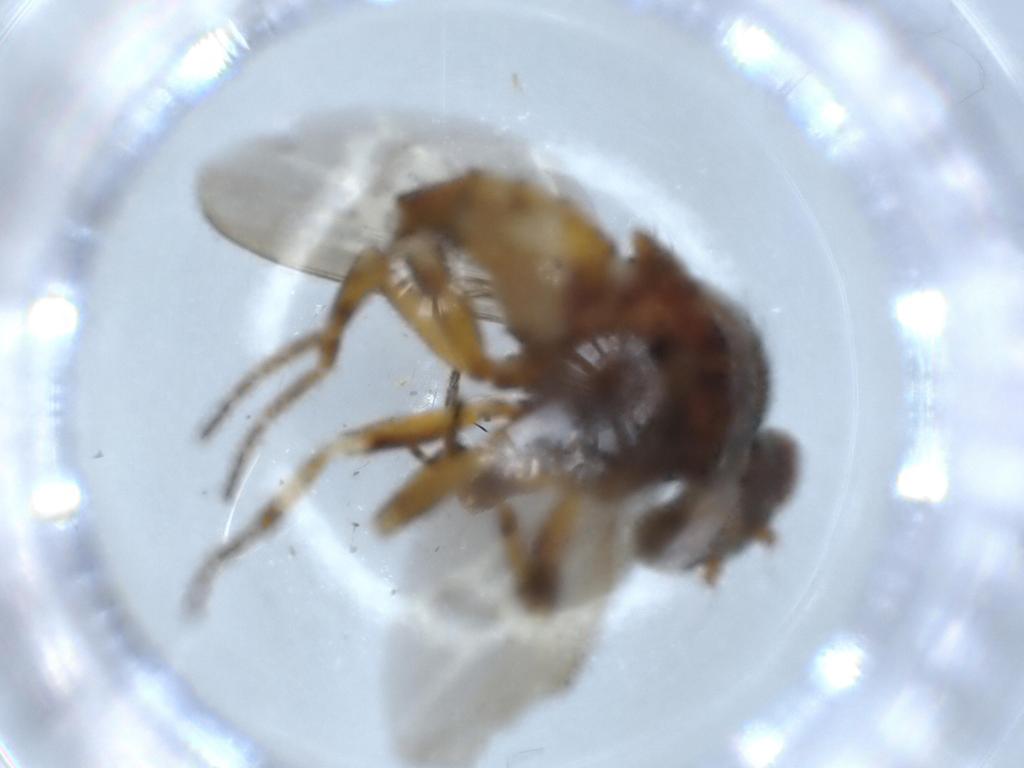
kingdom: Animalia
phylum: Arthropoda
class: Insecta
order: Diptera
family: Odiniidae
